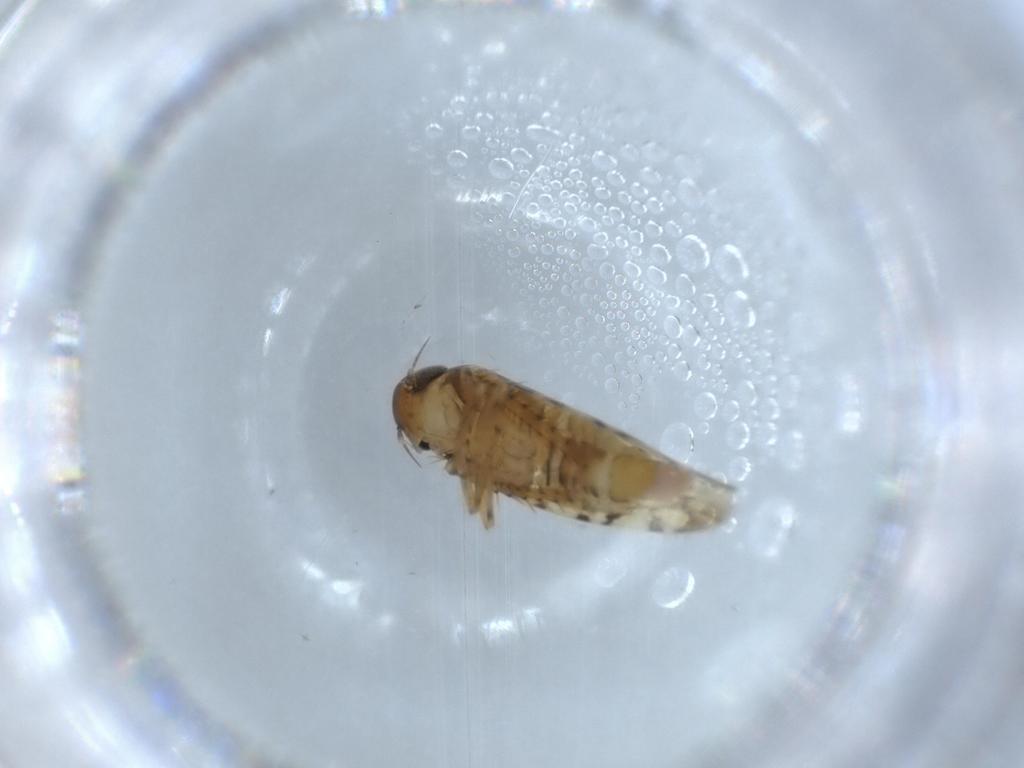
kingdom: Animalia
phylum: Arthropoda
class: Insecta
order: Hemiptera
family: Cicadellidae
